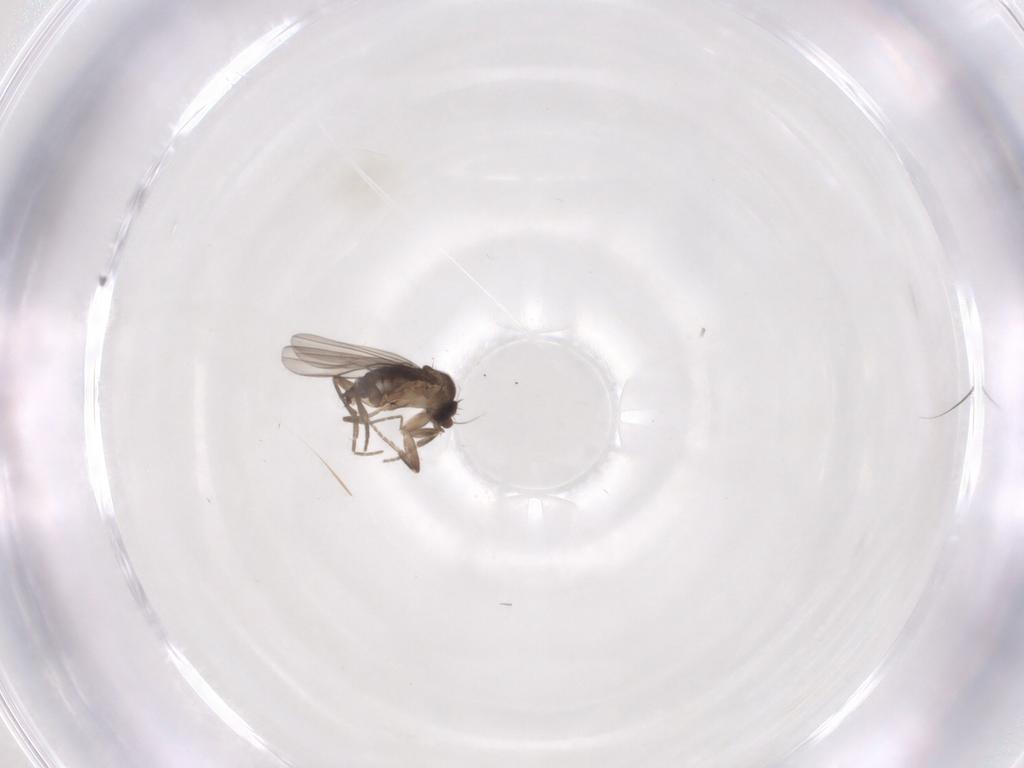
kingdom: Animalia
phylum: Arthropoda
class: Insecta
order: Diptera
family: Phoridae
